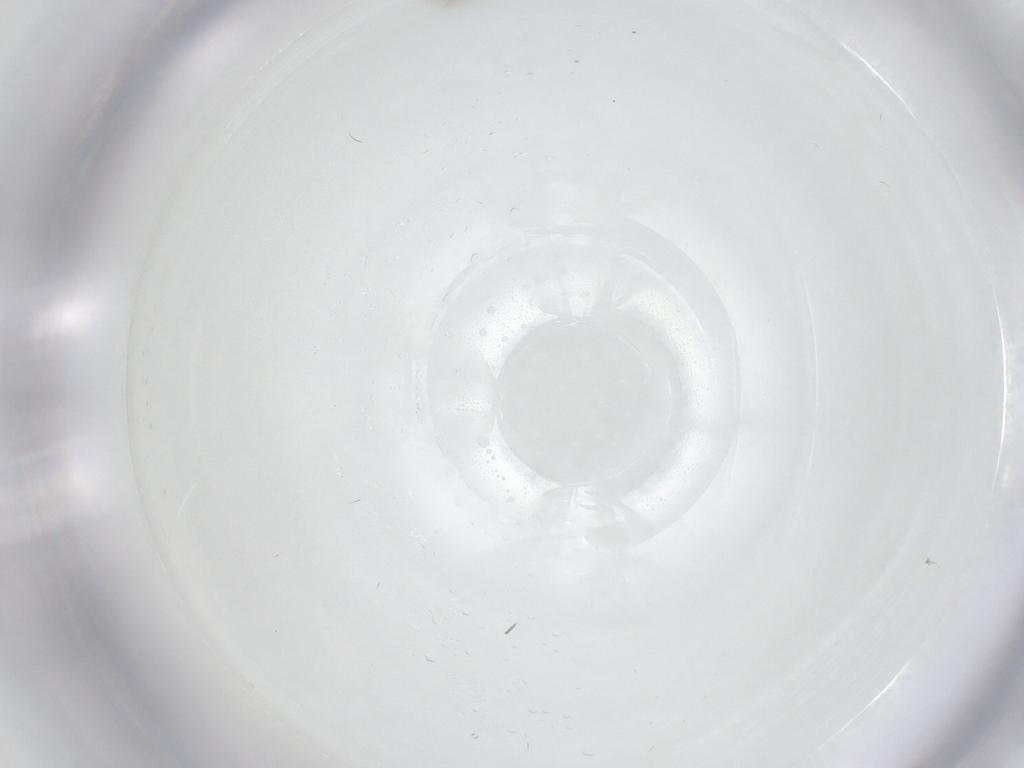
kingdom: Animalia
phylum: Arthropoda
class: Insecta
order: Diptera
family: Cecidomyiidae
